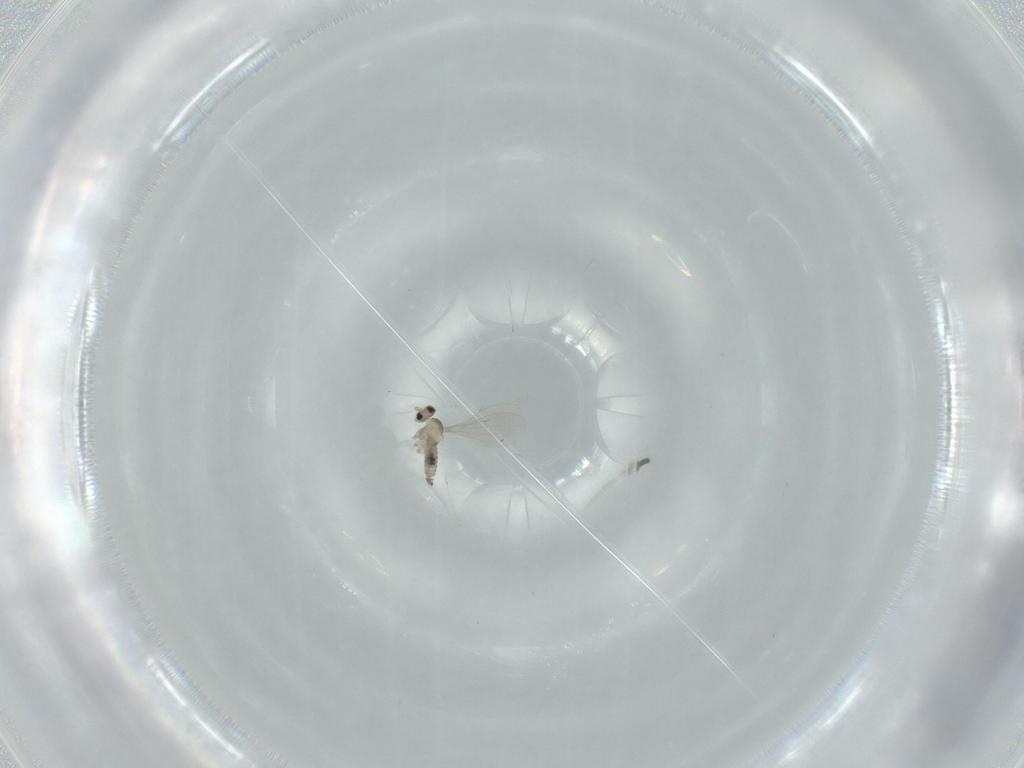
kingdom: Animalia
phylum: Arthropoda
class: Insecta
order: Diptera
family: Cecidomyiidae
